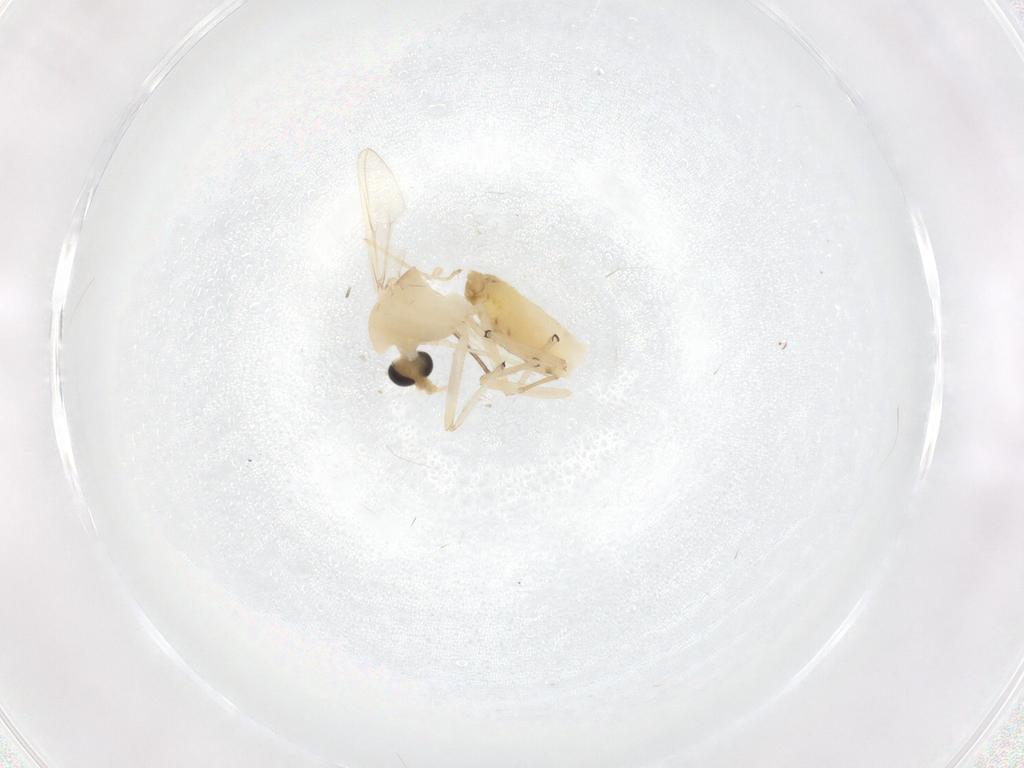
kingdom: Animalia
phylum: Arthropoda
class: Insecta
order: Diptera
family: Chironomidae
